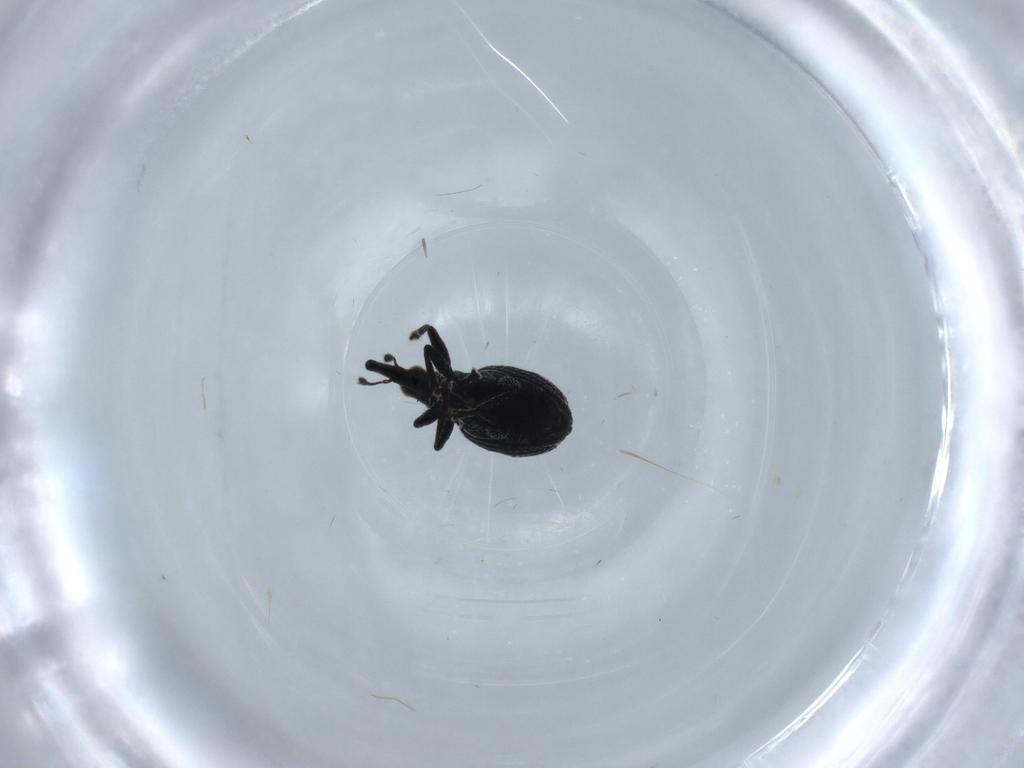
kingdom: Animalia
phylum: Arthropoda
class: Insecta
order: Coleoptera
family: Brentidae
